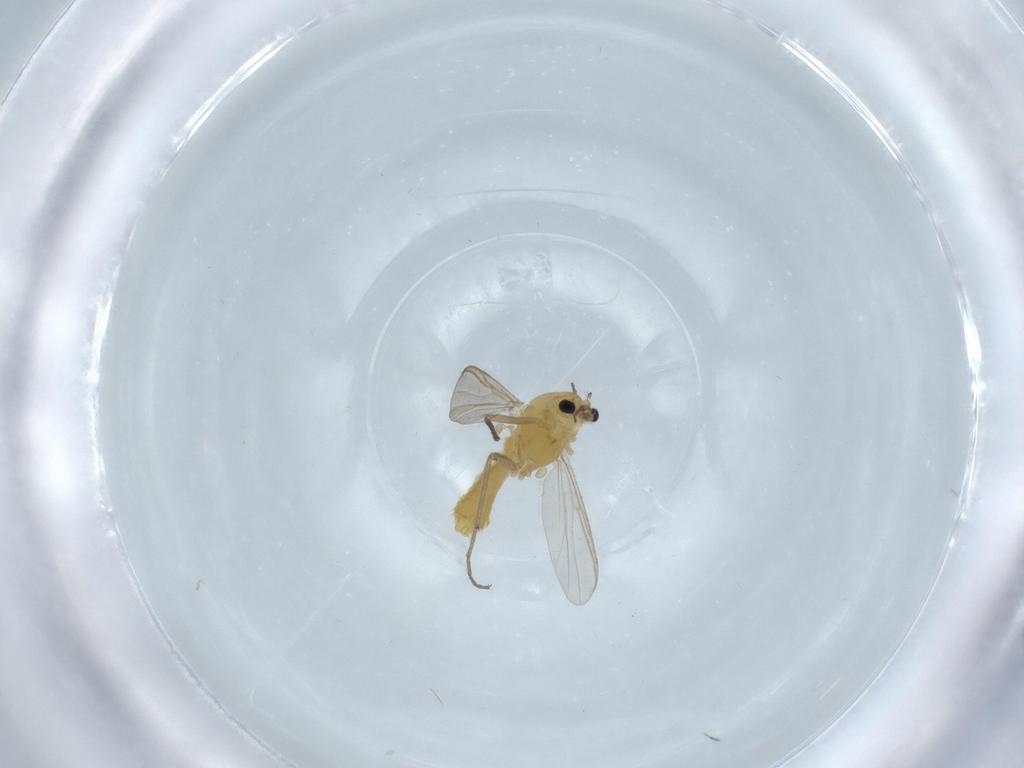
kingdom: Animalia
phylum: Arthropoda
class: Insecta
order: Diptera
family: Chironomidae
